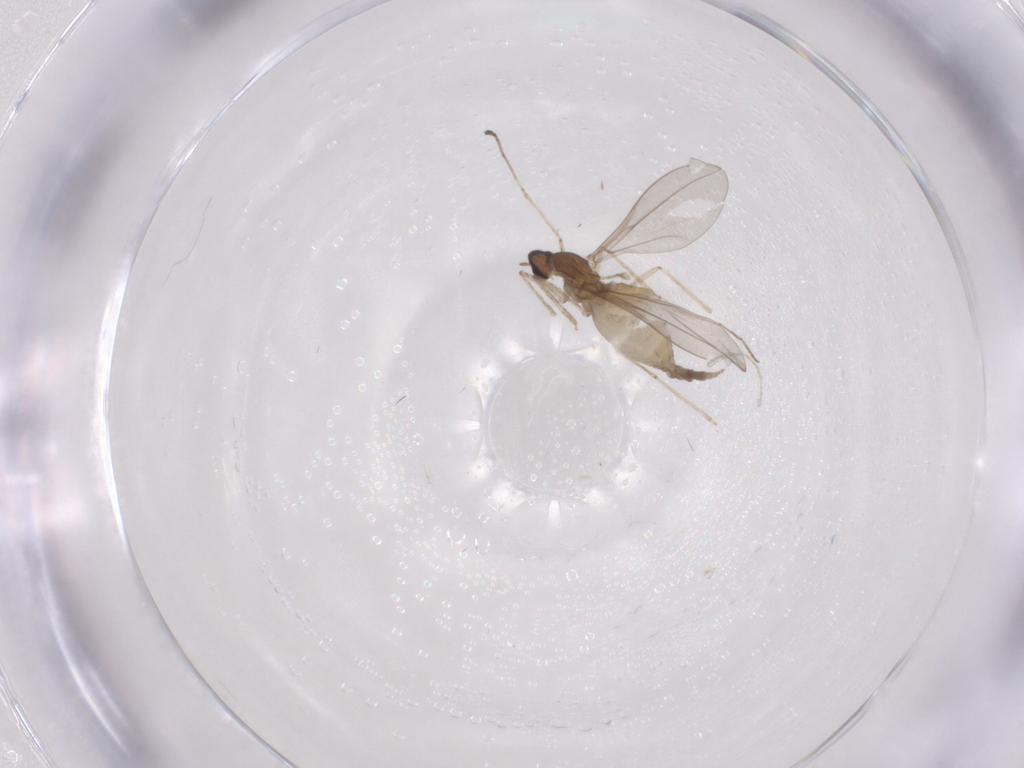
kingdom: Animalia
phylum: Arthropoda
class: Insecta
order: Diptera
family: Cecidomyiidae
